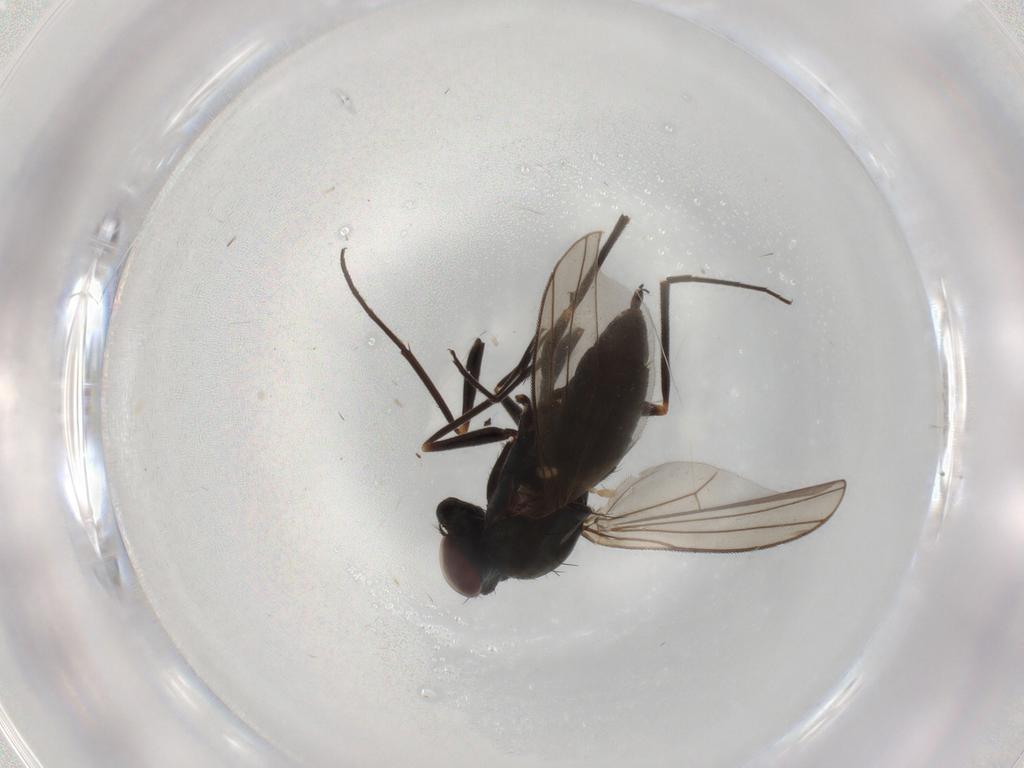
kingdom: Animalia
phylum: Arthropoda
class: Insecta
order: Diptera
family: Dolichopodidae
